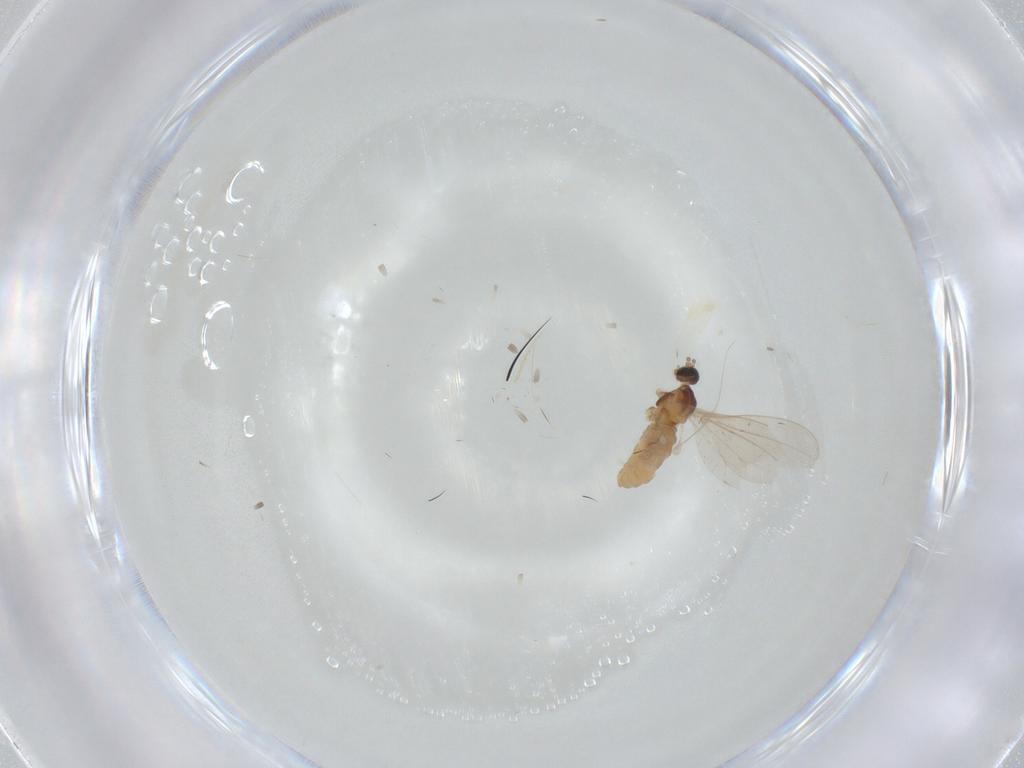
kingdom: Animalia
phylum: Arthropoda
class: Insecta
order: Diptera
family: Cecidomyiidae
